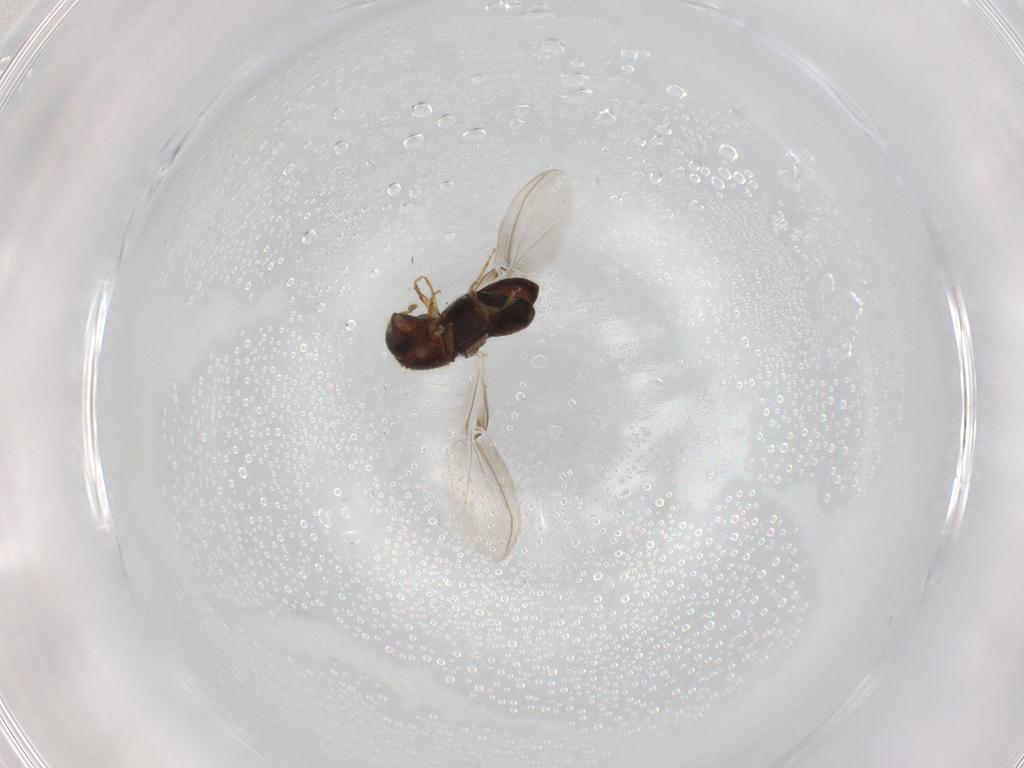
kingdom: Animalia
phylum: Arthropoda
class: Insecta
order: Coleoptera
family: Curculionidae
